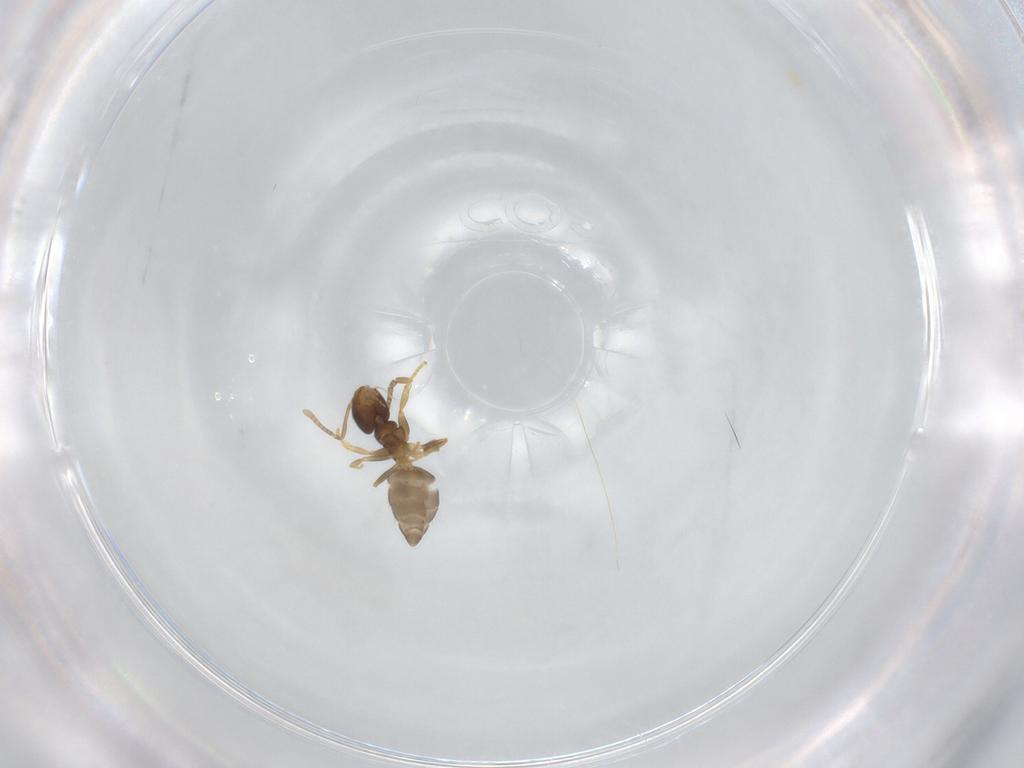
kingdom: Animalia
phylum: Arthropoda
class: Insecta
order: Hymenoptera
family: Formicidae
